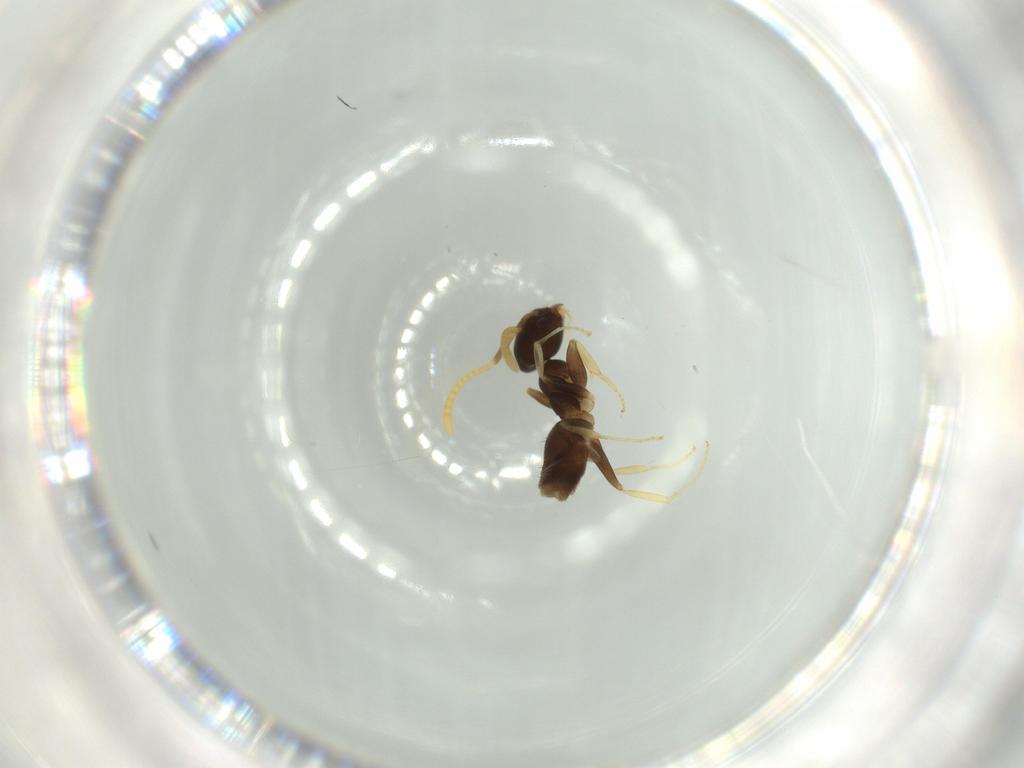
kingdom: Animalia
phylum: Arthropoda
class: Insecta
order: Hymenoptera
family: Formicidae
